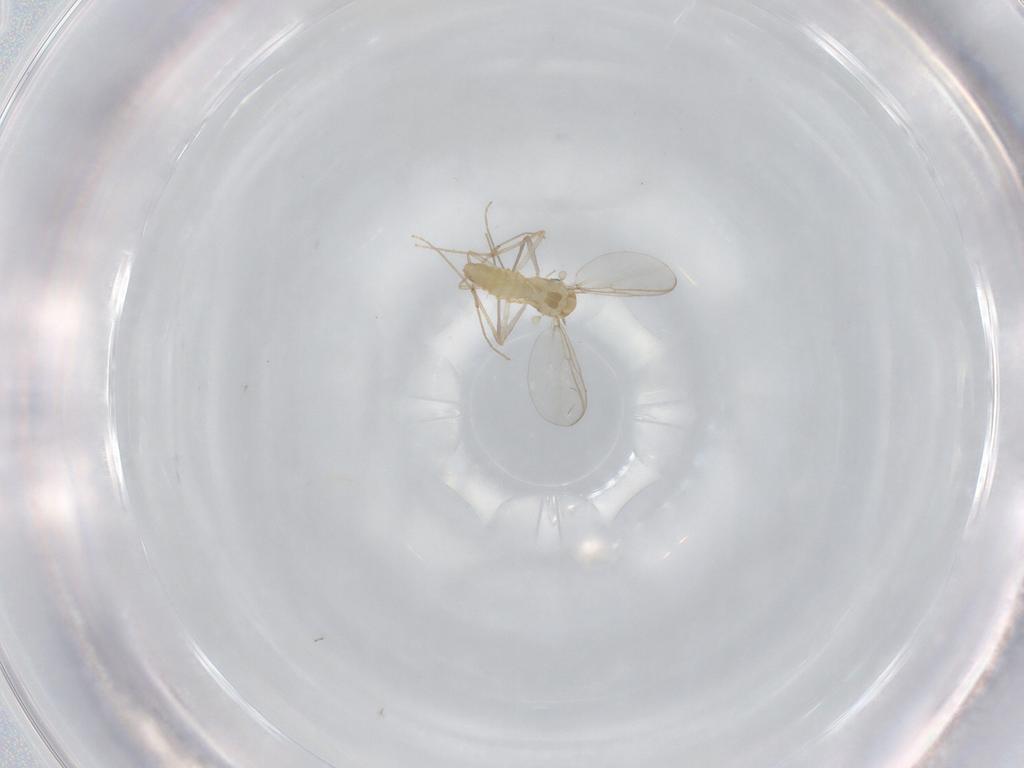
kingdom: Animalia
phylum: Arthropoda
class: Insecta
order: Diptera
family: Chironomidae
